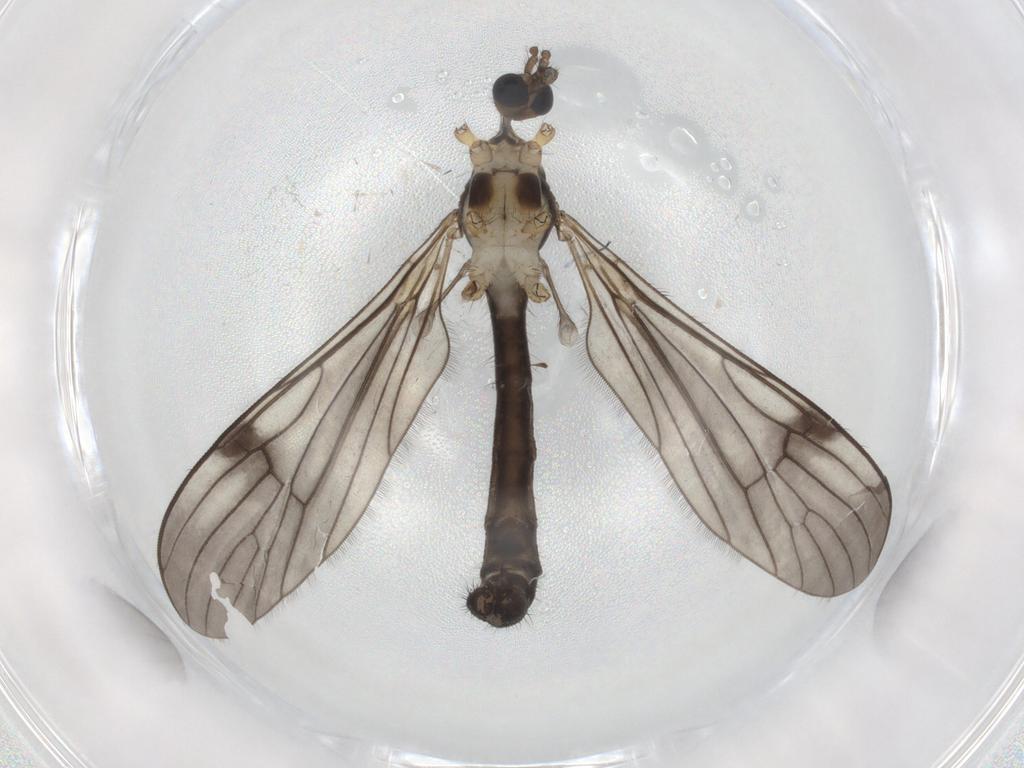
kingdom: Animalia
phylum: Arthropoda
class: Insecta
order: Diptera
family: Limoniidae
